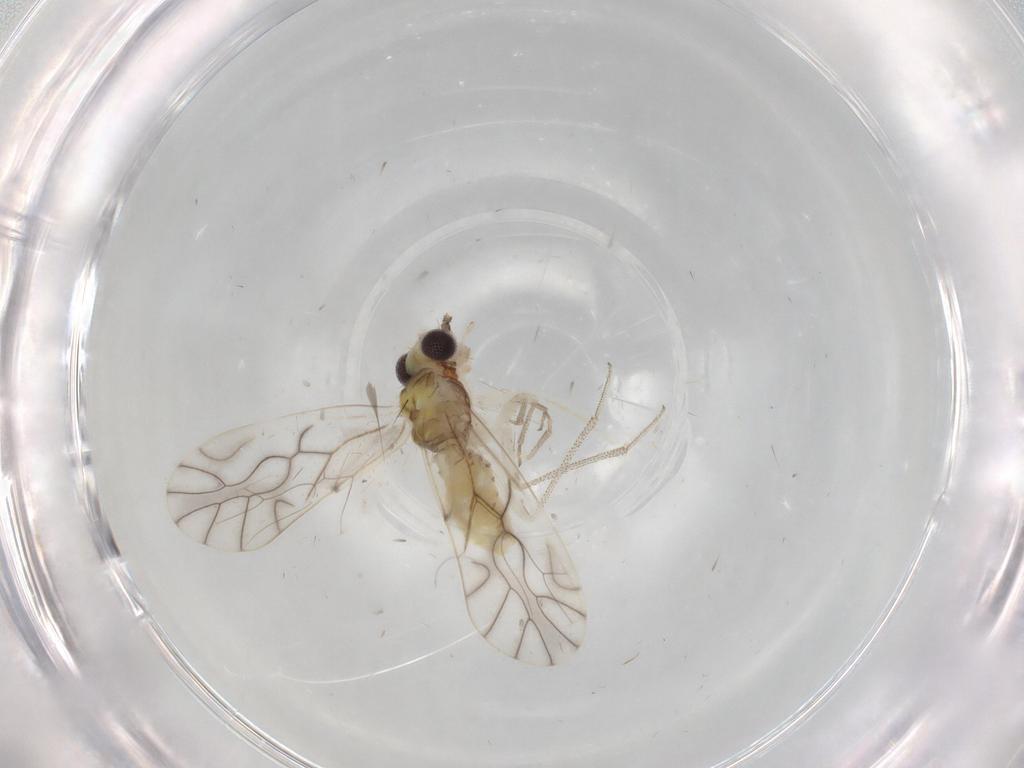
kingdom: Animalia
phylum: Arthropoda
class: Insecta
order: Psocodea
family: Caeciliusidae
